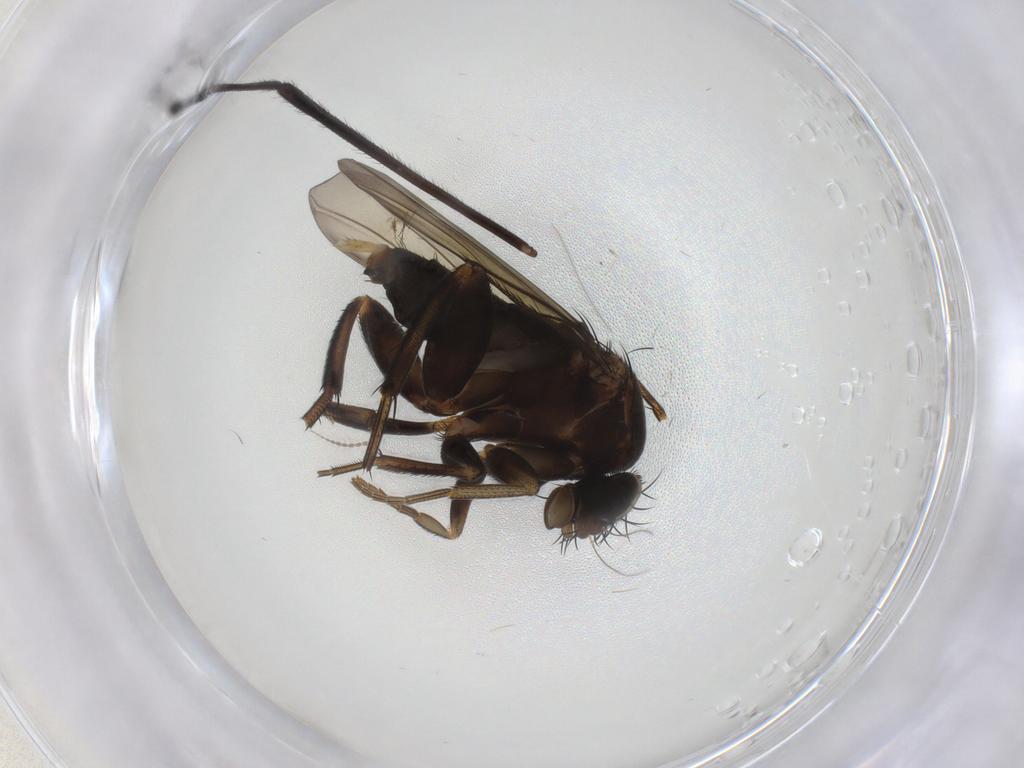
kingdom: Animalia
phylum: Arthropoda
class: Insecta
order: Diptera
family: Phoridae
